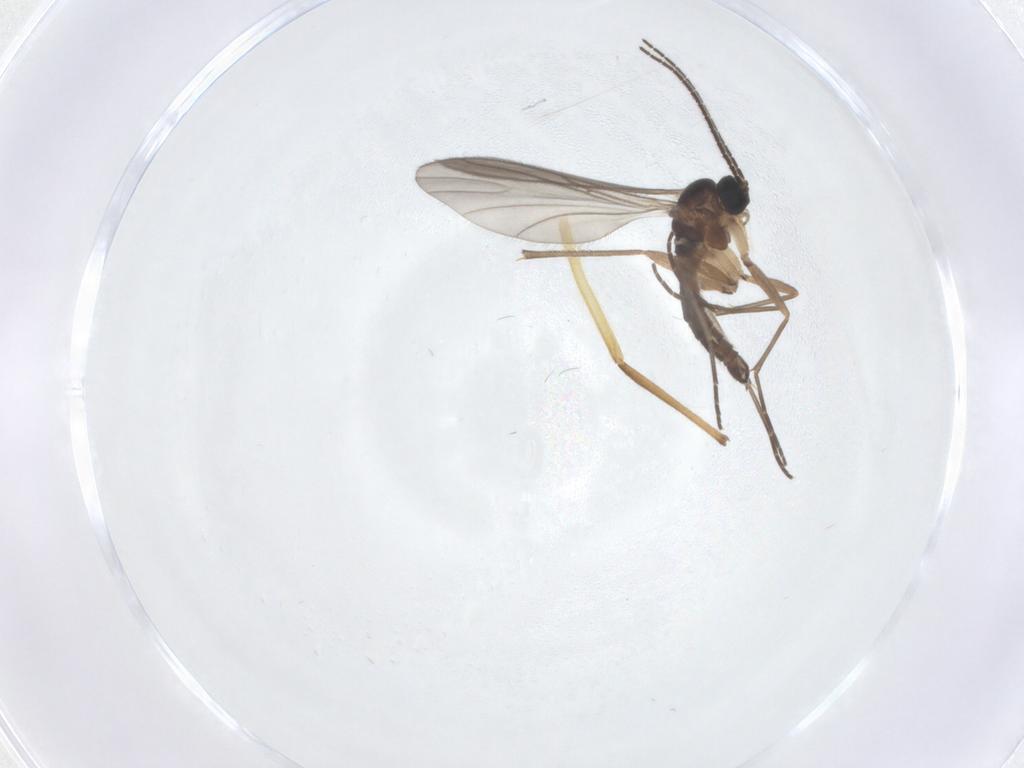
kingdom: Animalia
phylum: Arthropoda
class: Insecta
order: Diptera
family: Sciaridae
